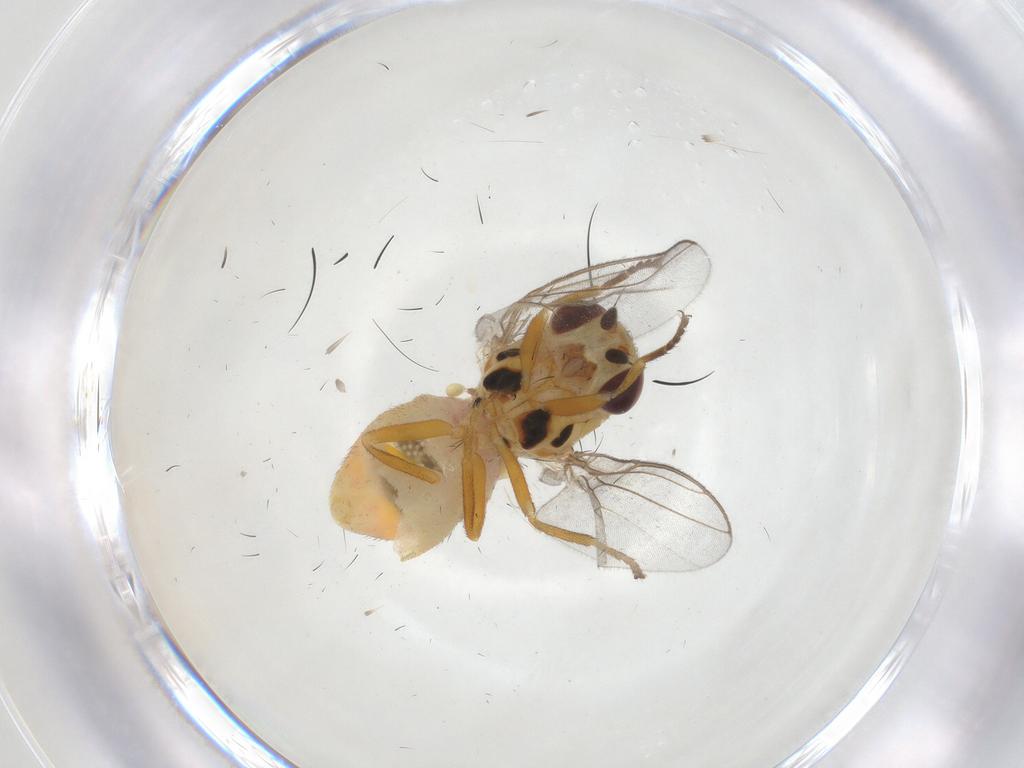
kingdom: Animalia
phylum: Arthropoda
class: Insecta
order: Diptera
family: Chloropidae
